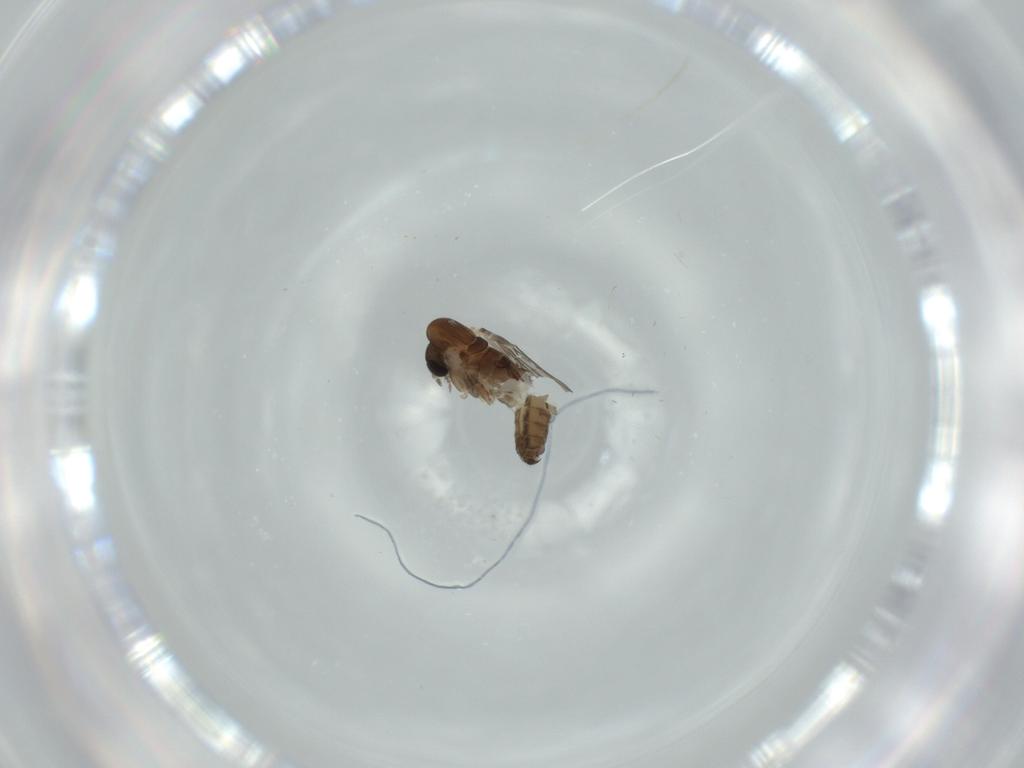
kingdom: Animalia
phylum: Arthropoda
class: Insecta
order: Diptera
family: Psychodidae
